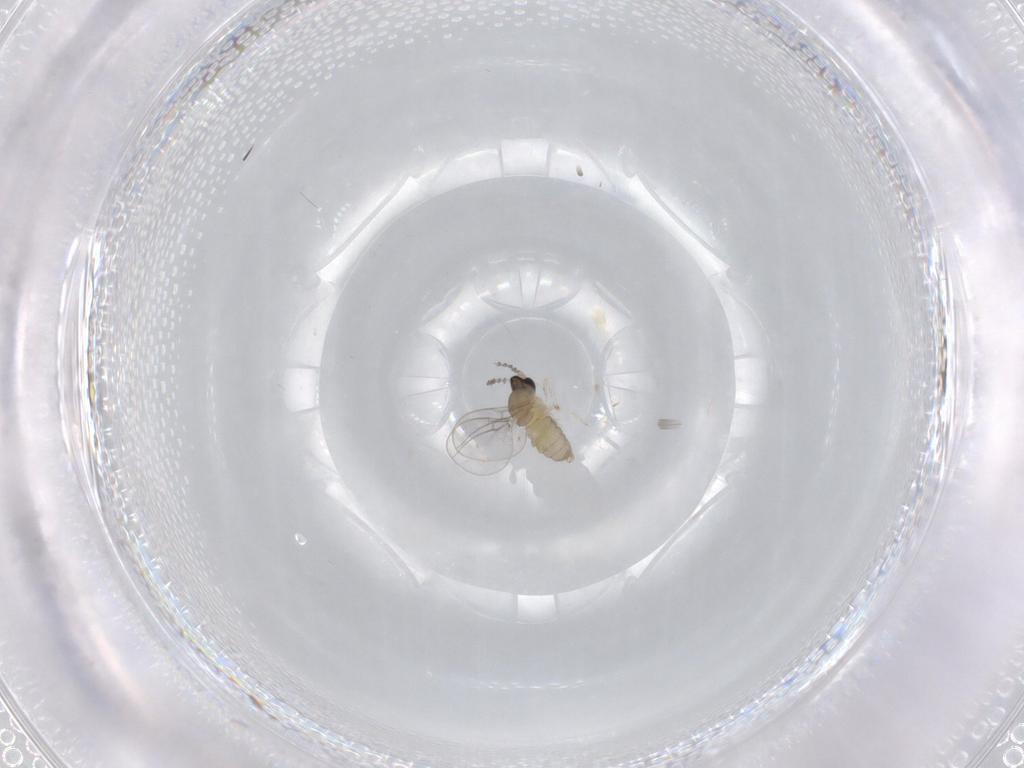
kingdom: Animalia
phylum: Arthropoda
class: Insecta
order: Diptera
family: Cecidomyiidae
